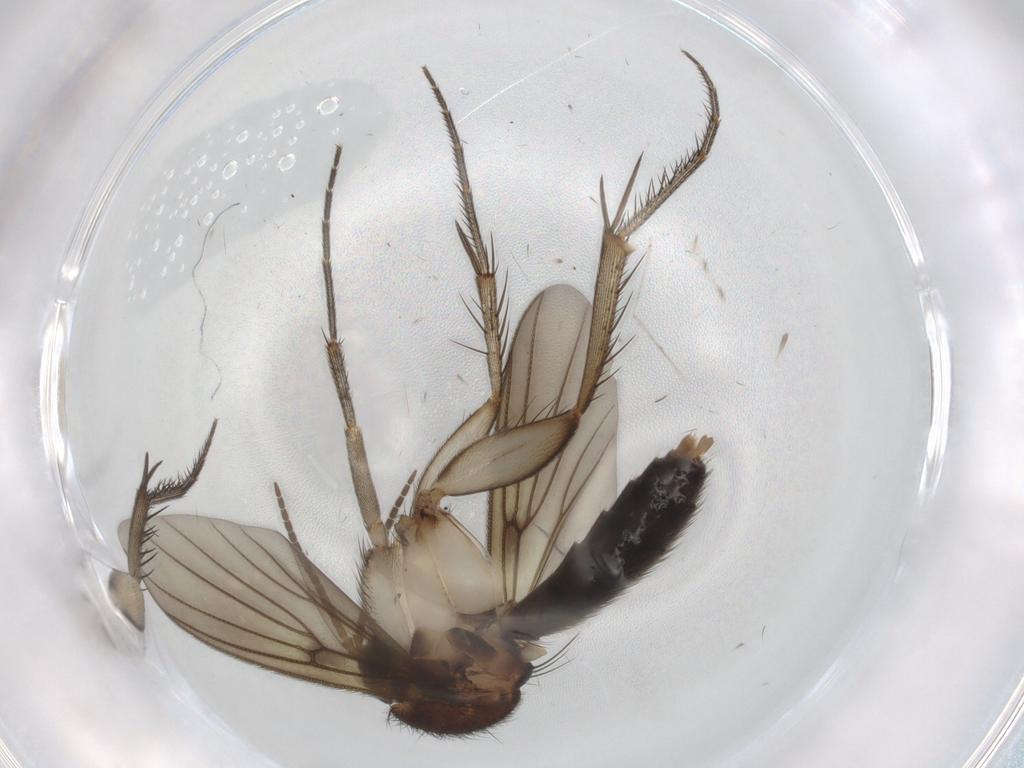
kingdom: Animalia
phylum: Arthropoda
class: Insecta
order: Diptera
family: Mycetophilidae
